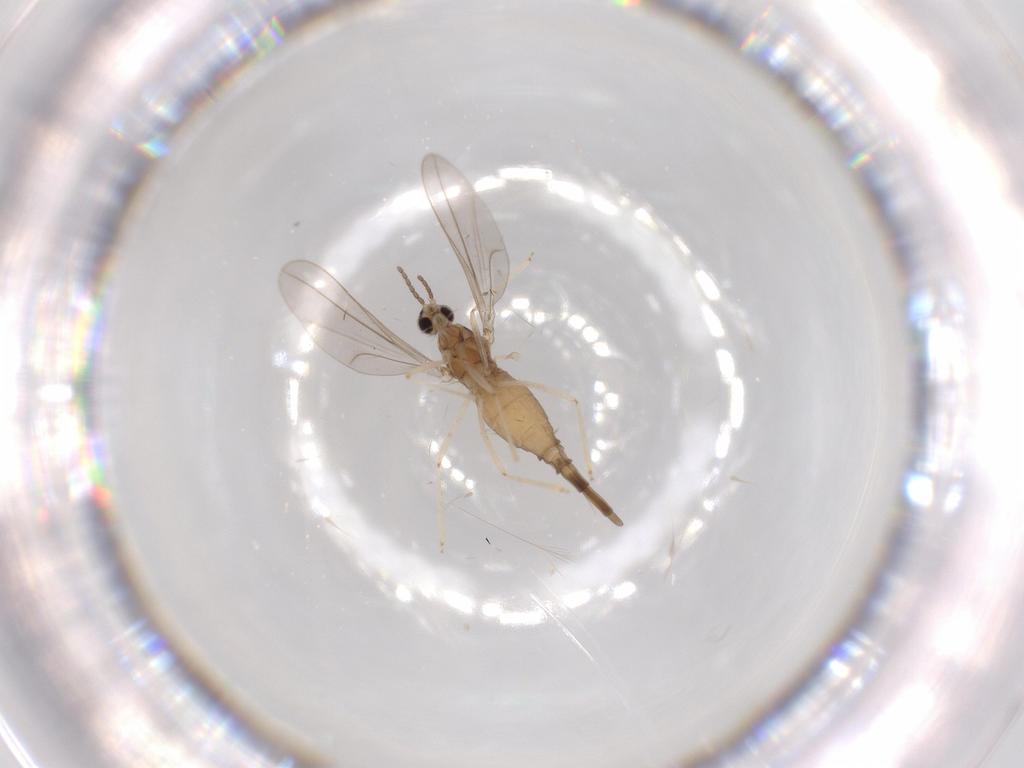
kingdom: Animalia
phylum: Arthropoda
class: Insecta
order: Diptera
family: Cecidomyiidae
